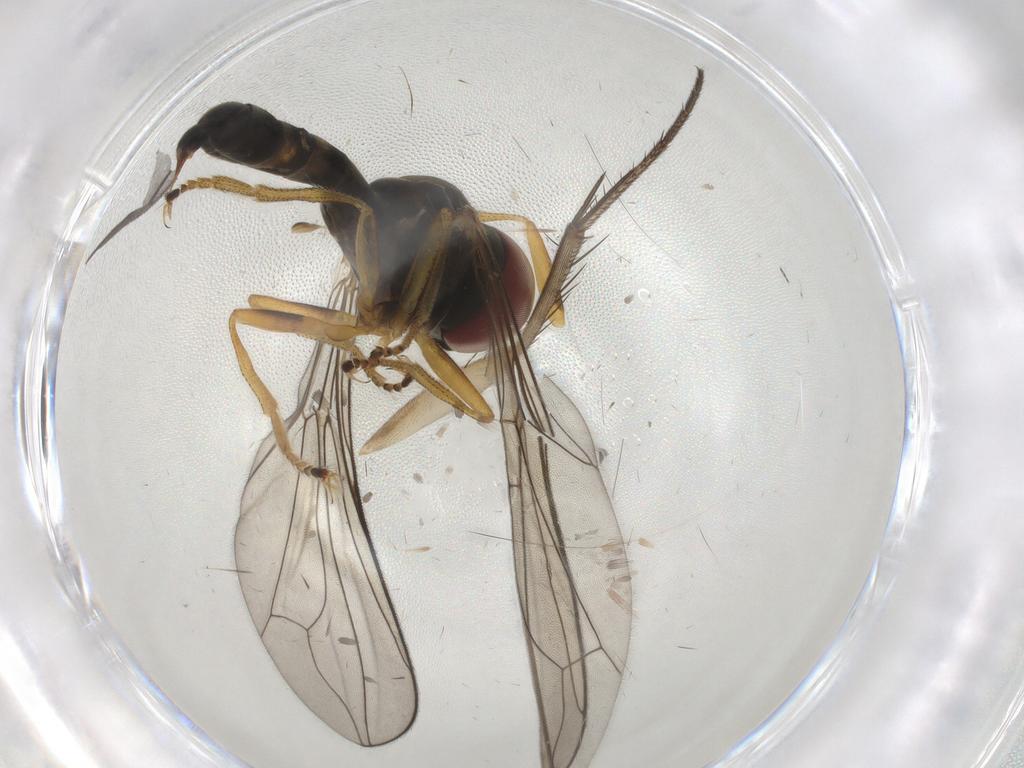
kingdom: Animalia
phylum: Arthropoda
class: Insecta
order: Diptera
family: Pipunculidae
